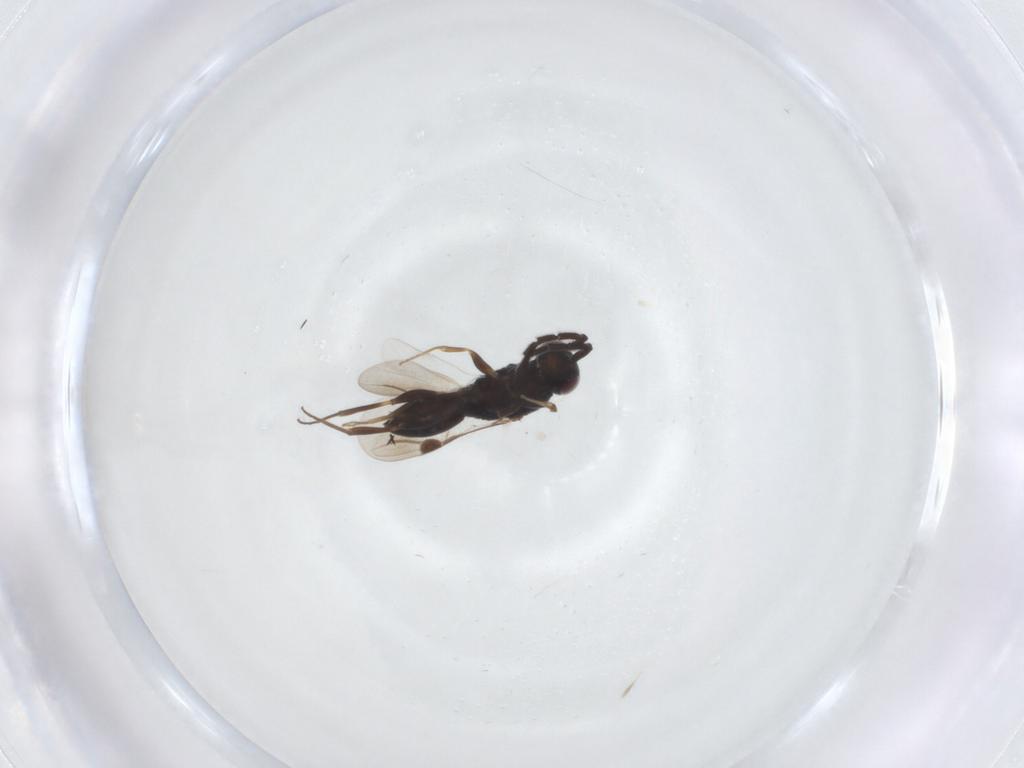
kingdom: Animalia
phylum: Arthropoda
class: Insecta
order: Hymenoptera
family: Megaspilidae
